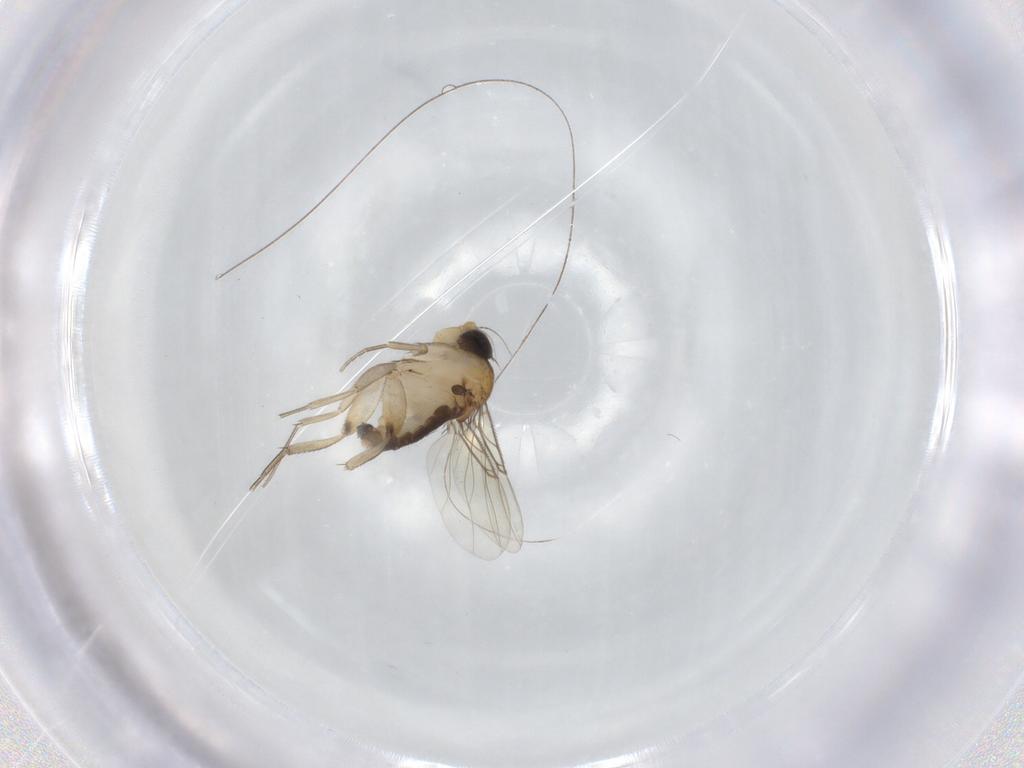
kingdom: Animalia
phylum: Arthropoda
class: Insecta
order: Diptera
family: Phoridae
